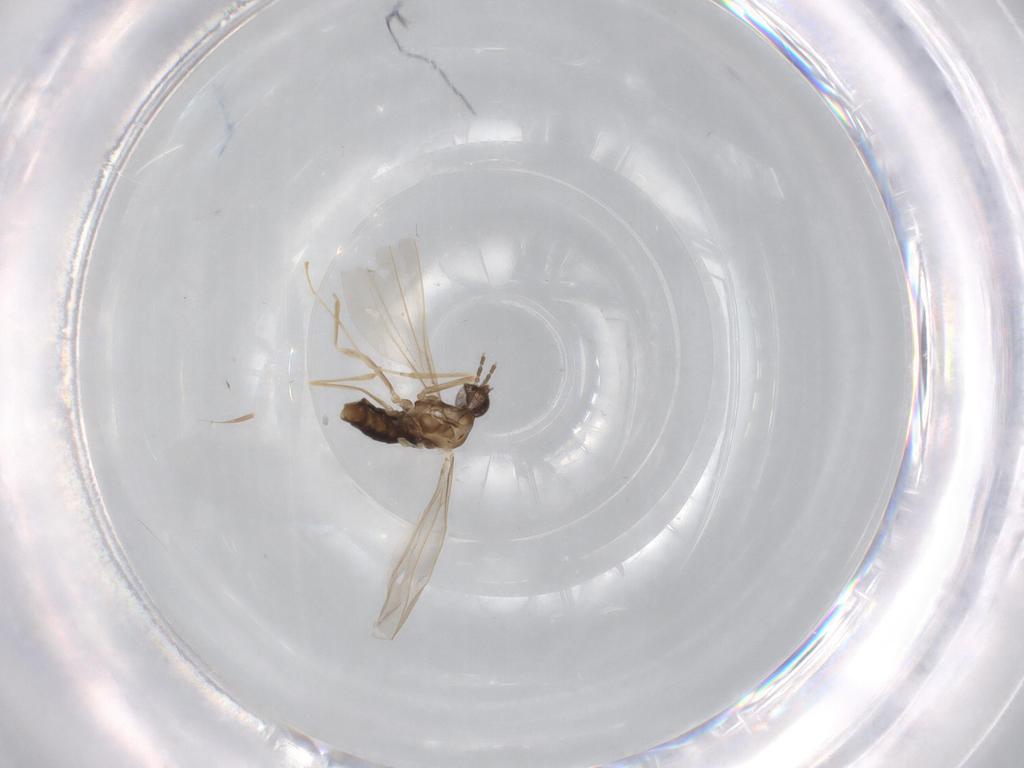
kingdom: Animalia
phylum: Arthropoda
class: Insecta
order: Diptera
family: Cecidomyiidae
